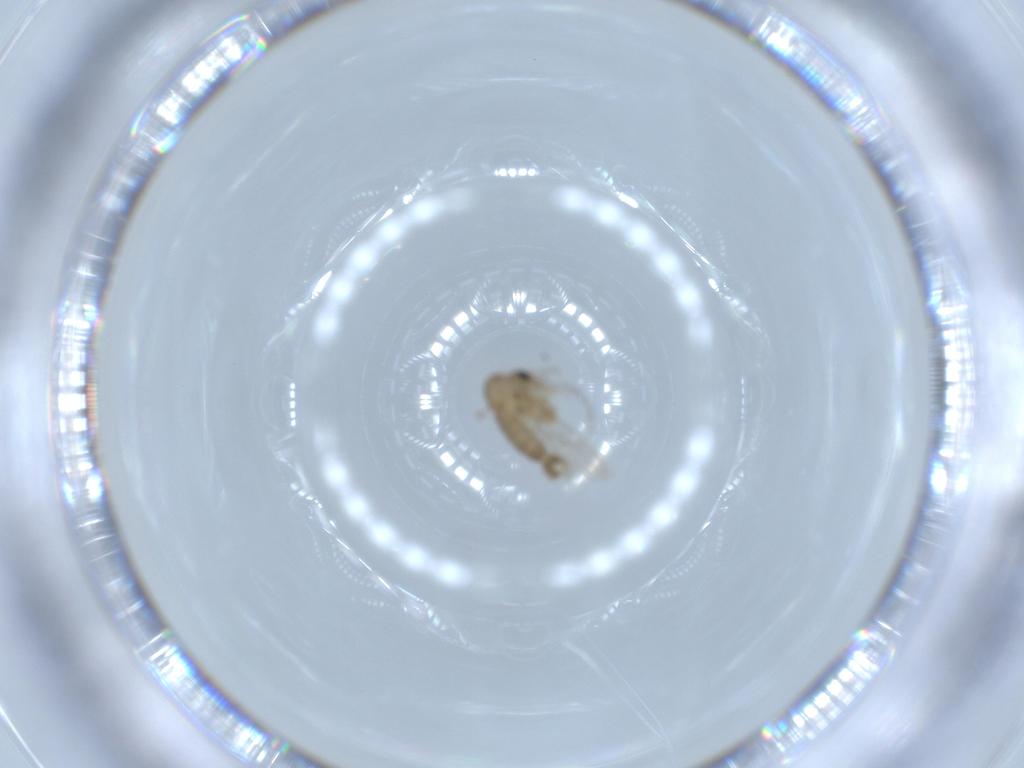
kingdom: Animalia
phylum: Arthropoda
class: Insecta
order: Diptera
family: Psychodidae
